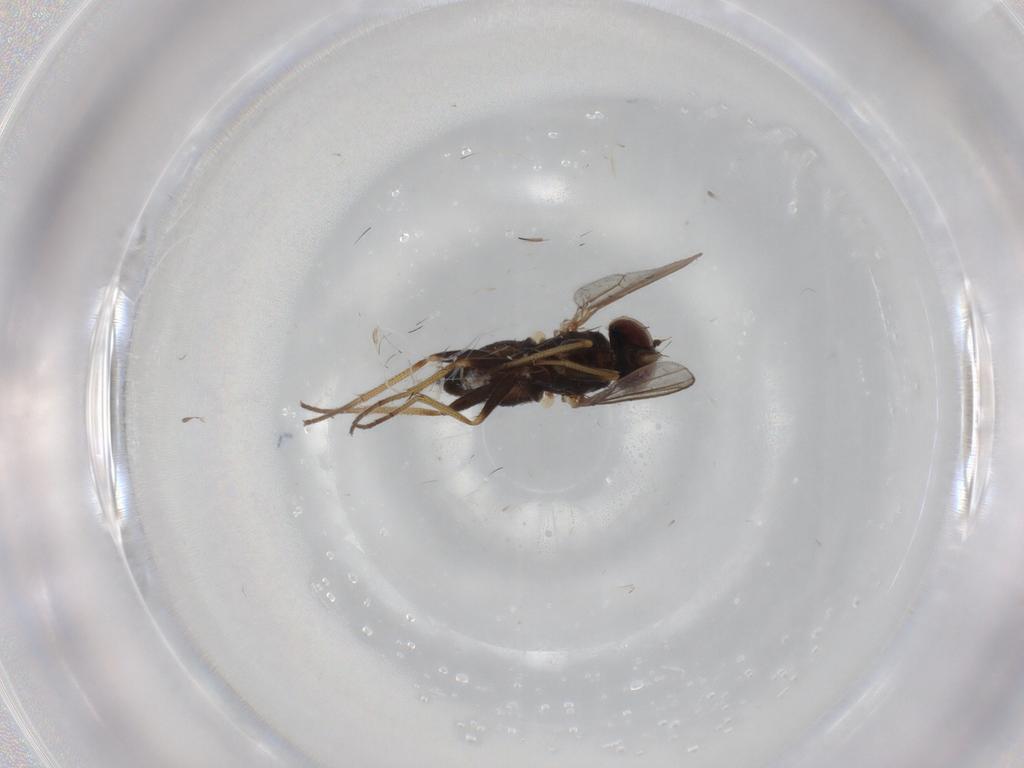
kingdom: Animalia
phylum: Arthropoda
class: Insecta
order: Diptera
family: Dolichopodidae
